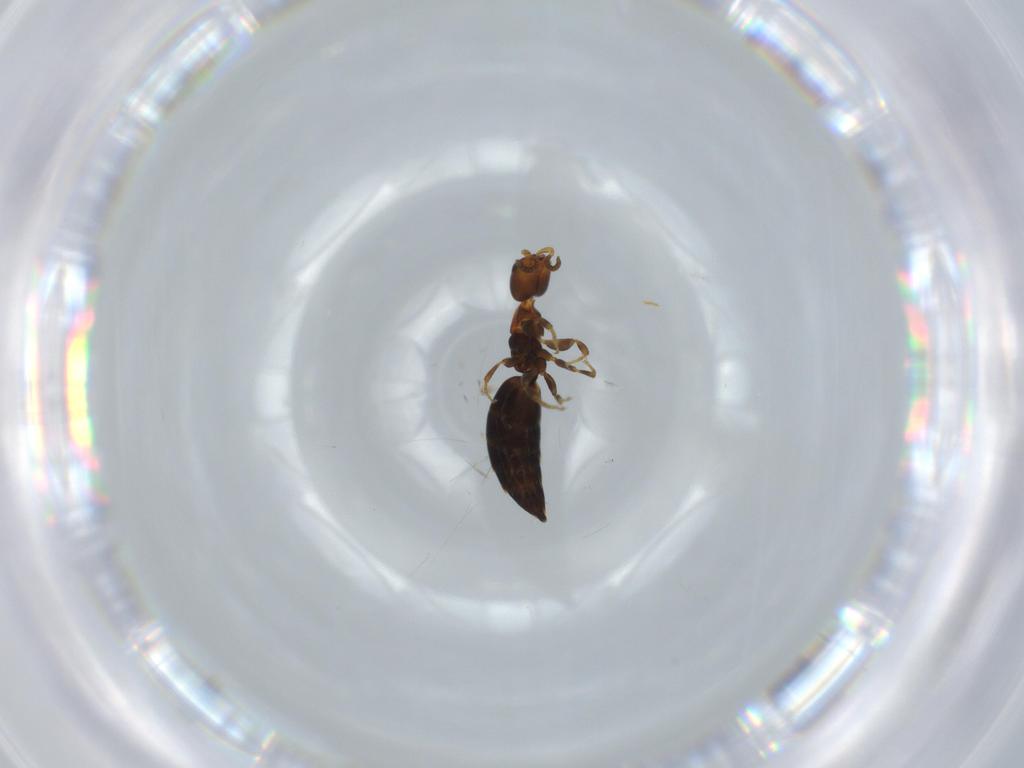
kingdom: Animalia
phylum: Arthropoda
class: Insecta
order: Hymenoptera
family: Bethylidae
